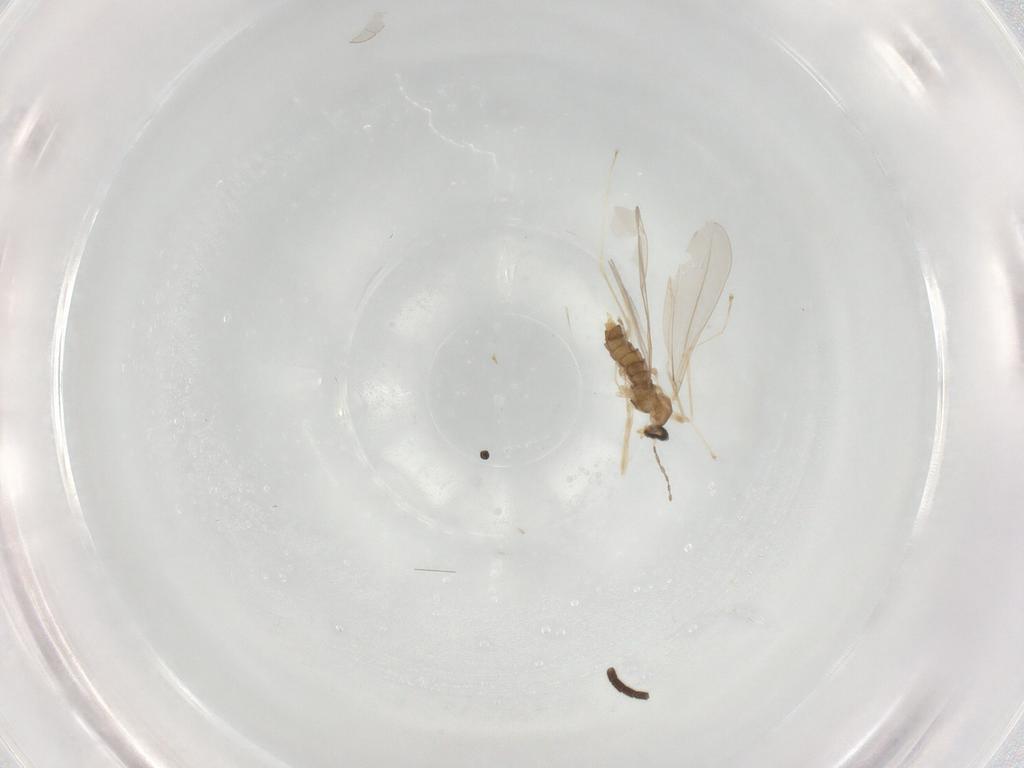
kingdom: Animalia
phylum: Arthropoda
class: Insecta
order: Diptera
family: Mycetophilidae
